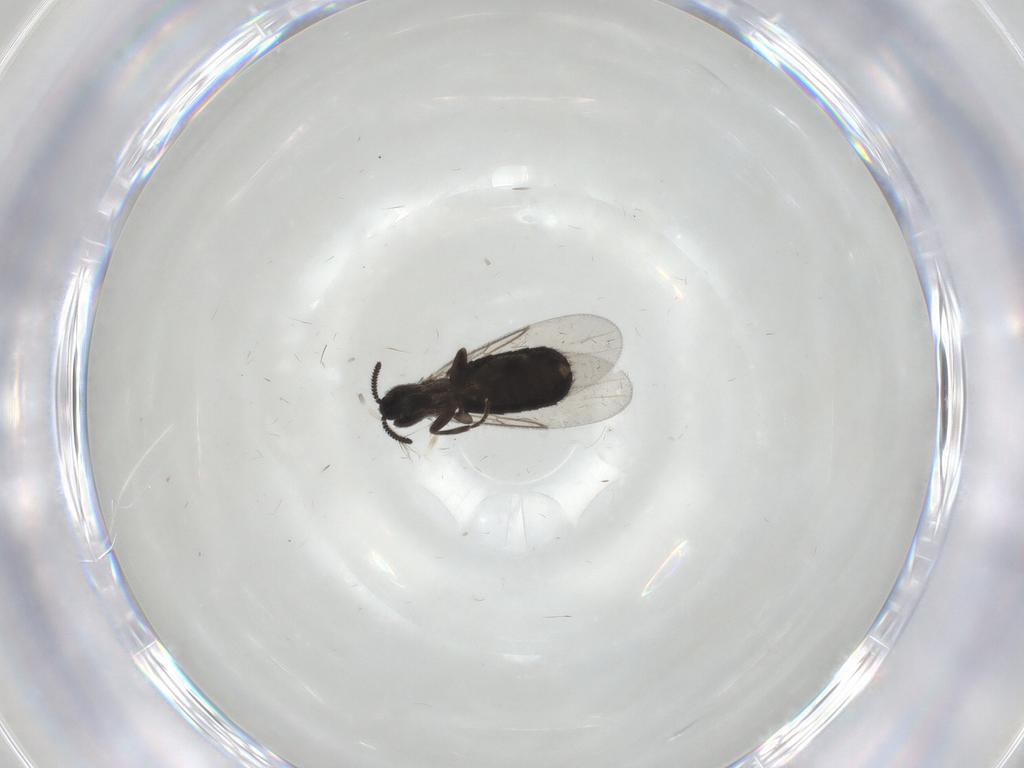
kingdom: Animalia
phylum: Arthropoda
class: Insecta
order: Diptera
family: Scatopsidae
